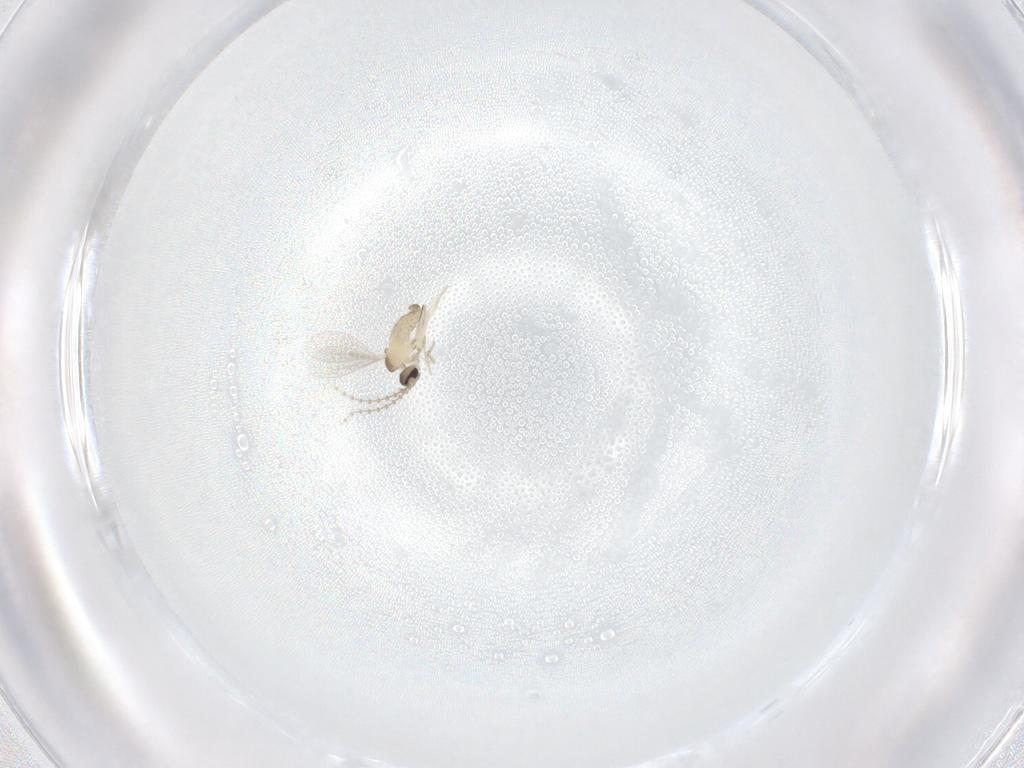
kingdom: Animalia
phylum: Arthropoda
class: Insecta
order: Diptera
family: Cecidomyiidae
